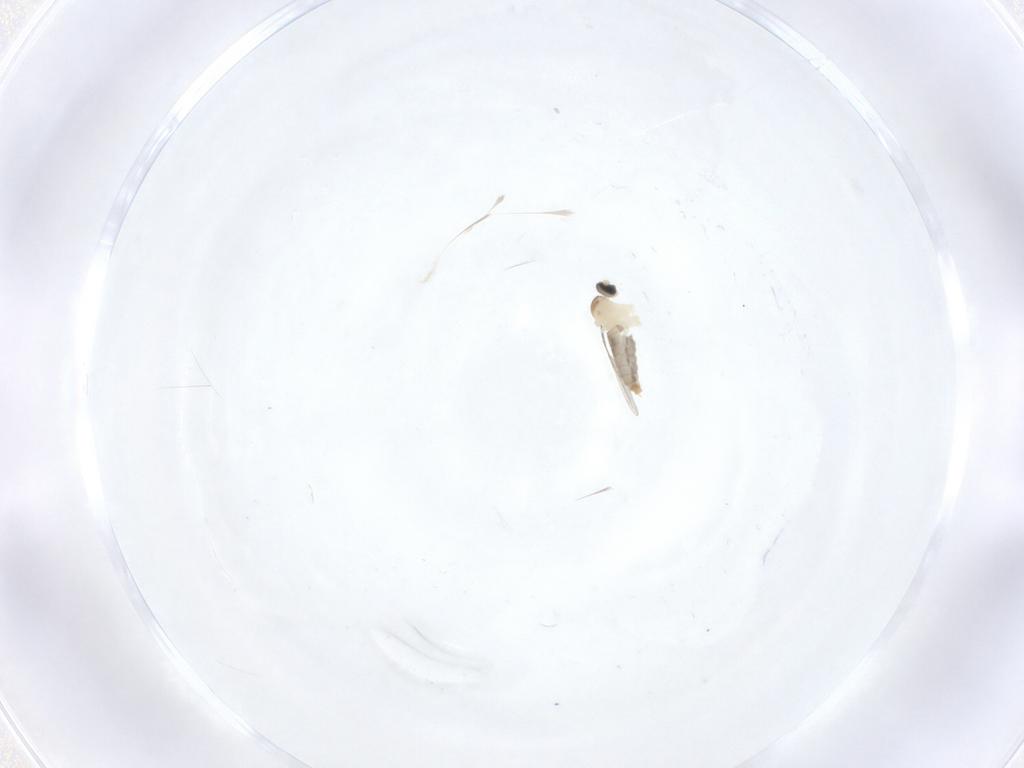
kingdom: Animalia
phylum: Arthropoda
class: Insecta
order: Diptera
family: Cecidomyiidae
